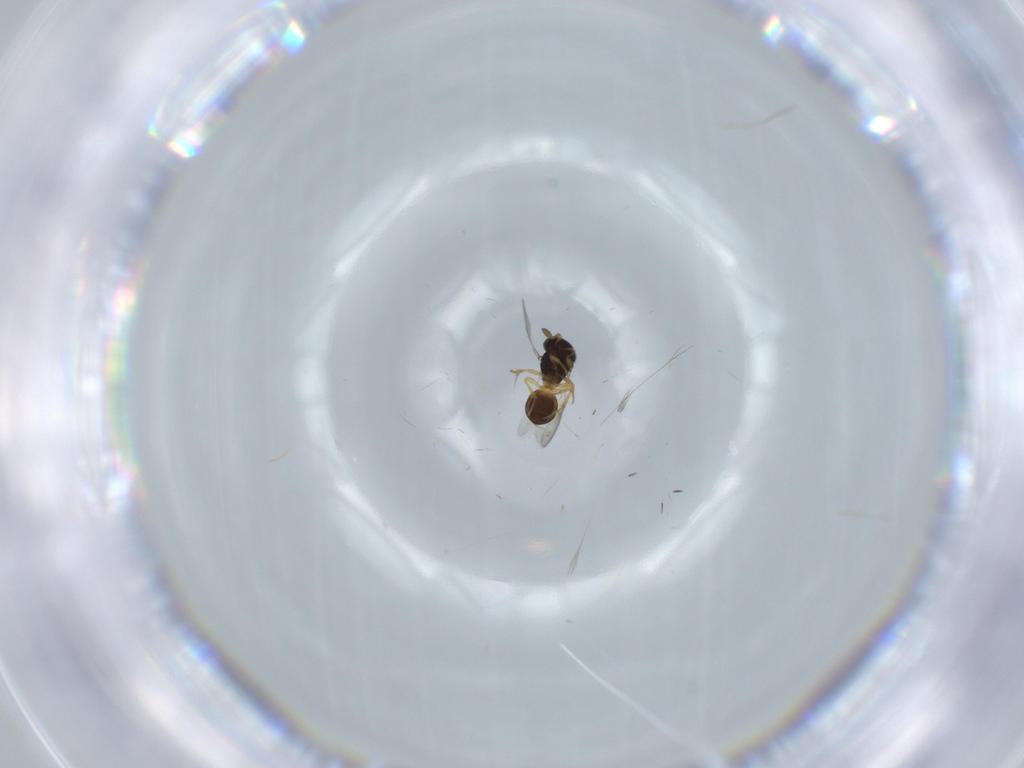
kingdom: Animalia
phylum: Arthropoda
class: Insecta
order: Hymenoptera
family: Scelionidae
